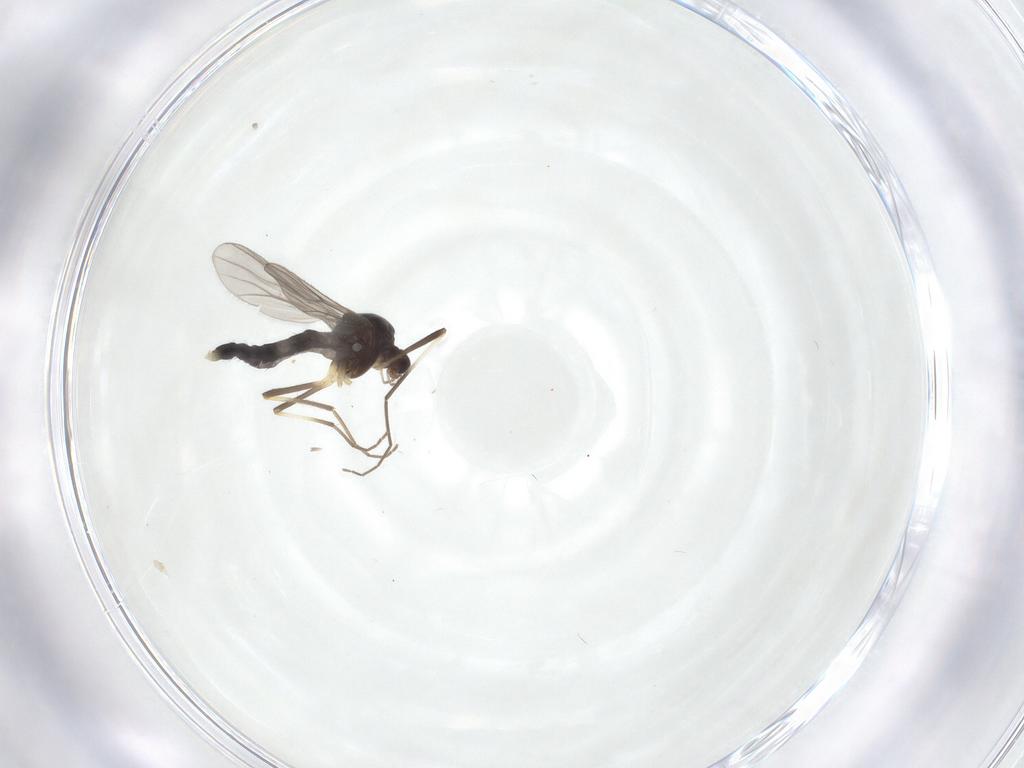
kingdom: Animalia
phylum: Arthropoda
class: Insecta
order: Diptera
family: Chironomidae
